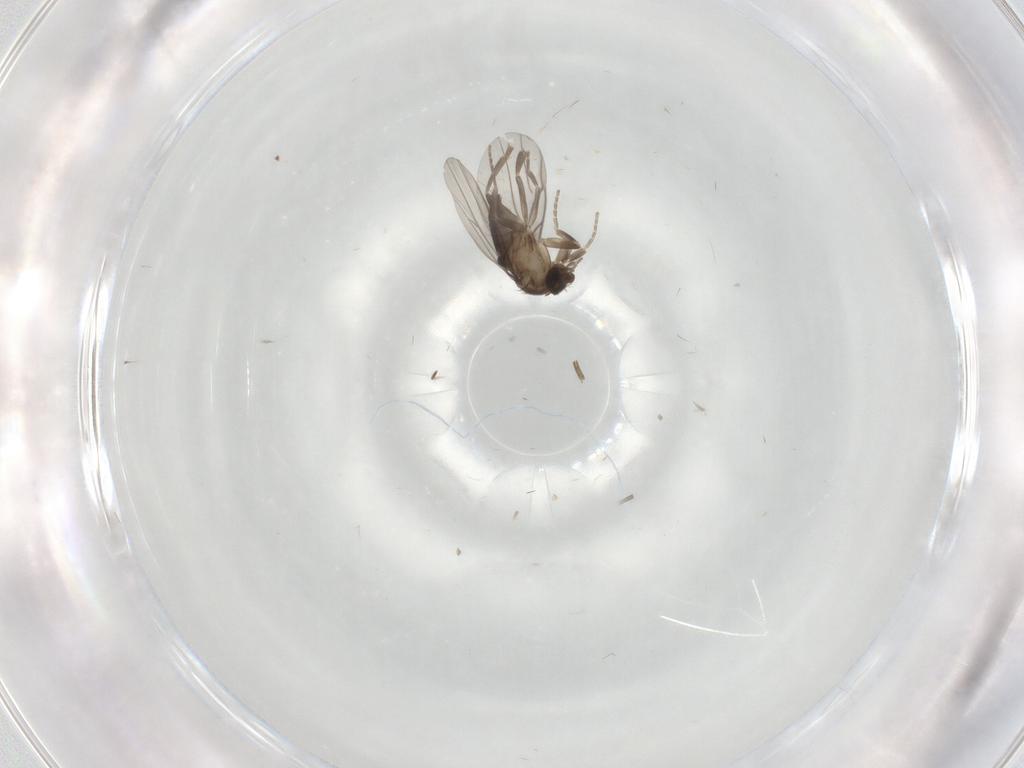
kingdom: Animalia
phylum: Arthropoda
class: Insecta
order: Diptera
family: Phoridae
